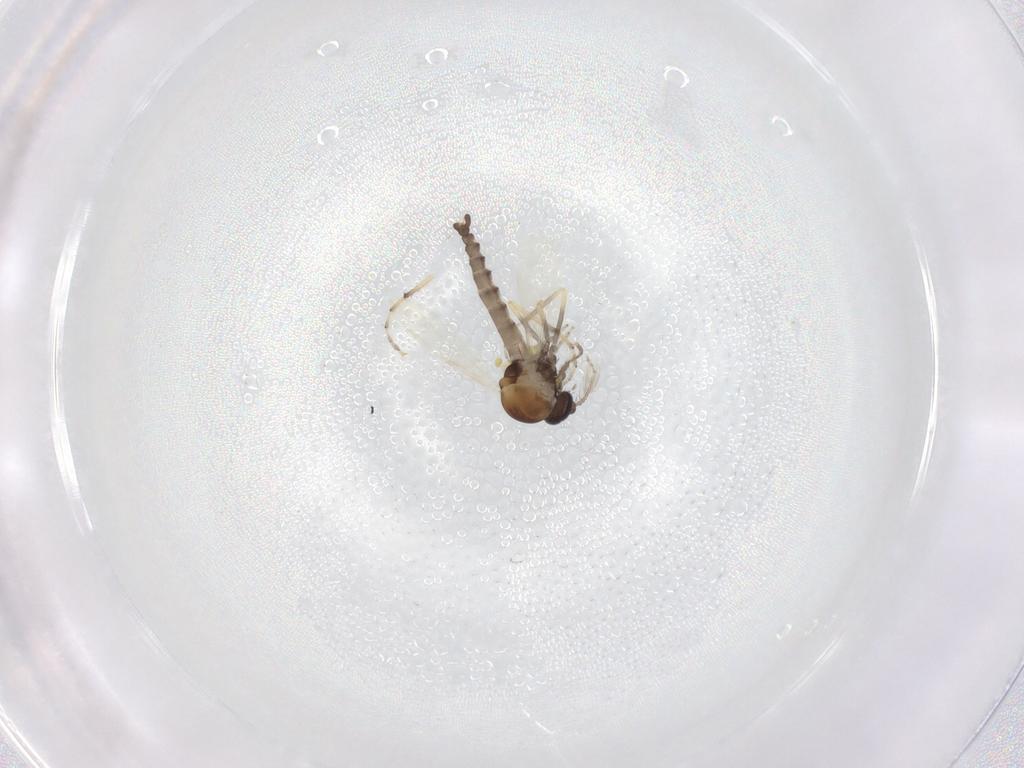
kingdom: Animalia
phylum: Arthropoda
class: Insecta
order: Diptera
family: Ceratopogonidae
